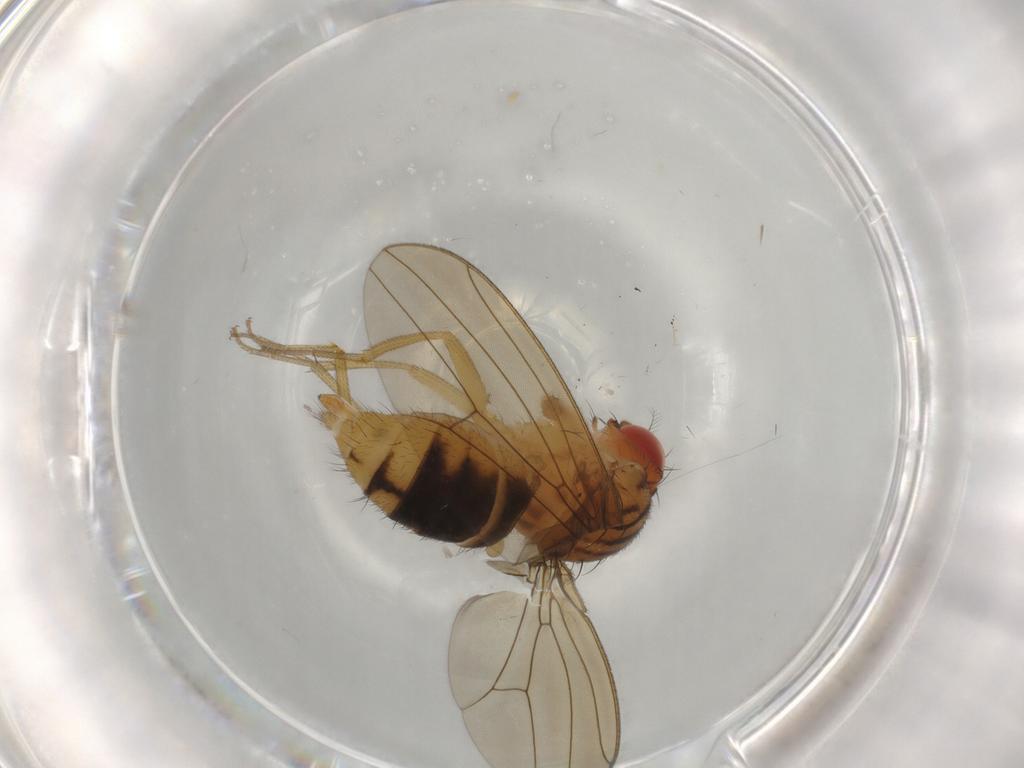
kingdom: Animalia
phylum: Arthropoda
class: Insecta
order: Diptera
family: Drosophilidae
